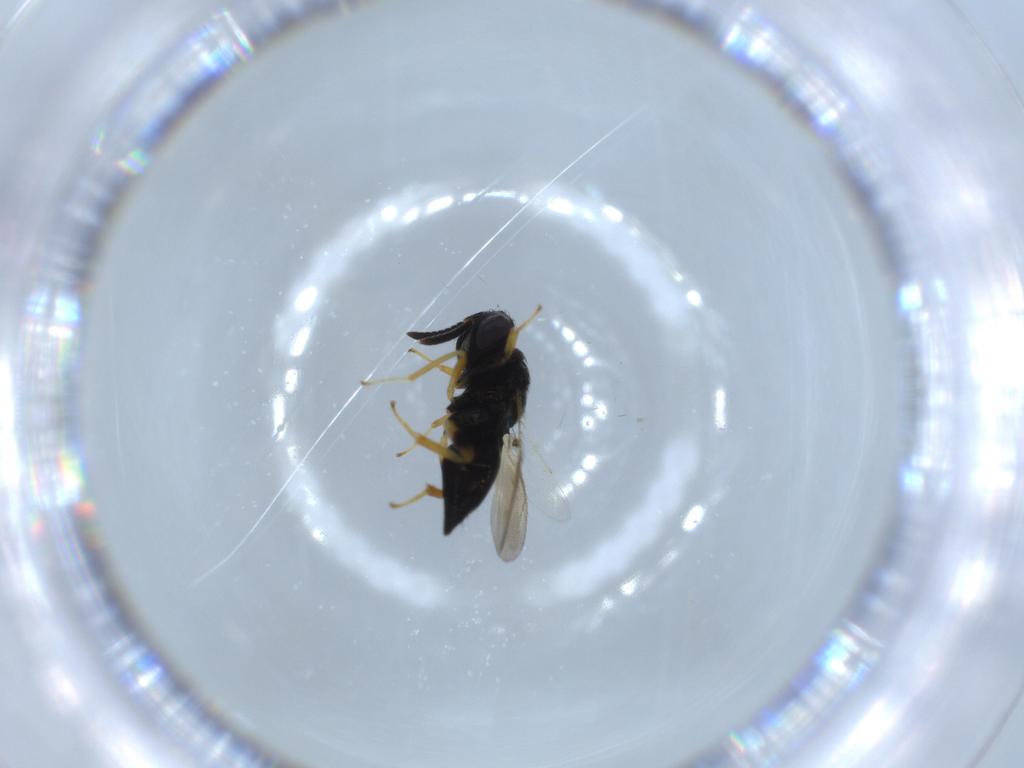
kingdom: Animalia
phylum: Arthropoda
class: Insecta
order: Hymenoptera
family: Pteromalidae
